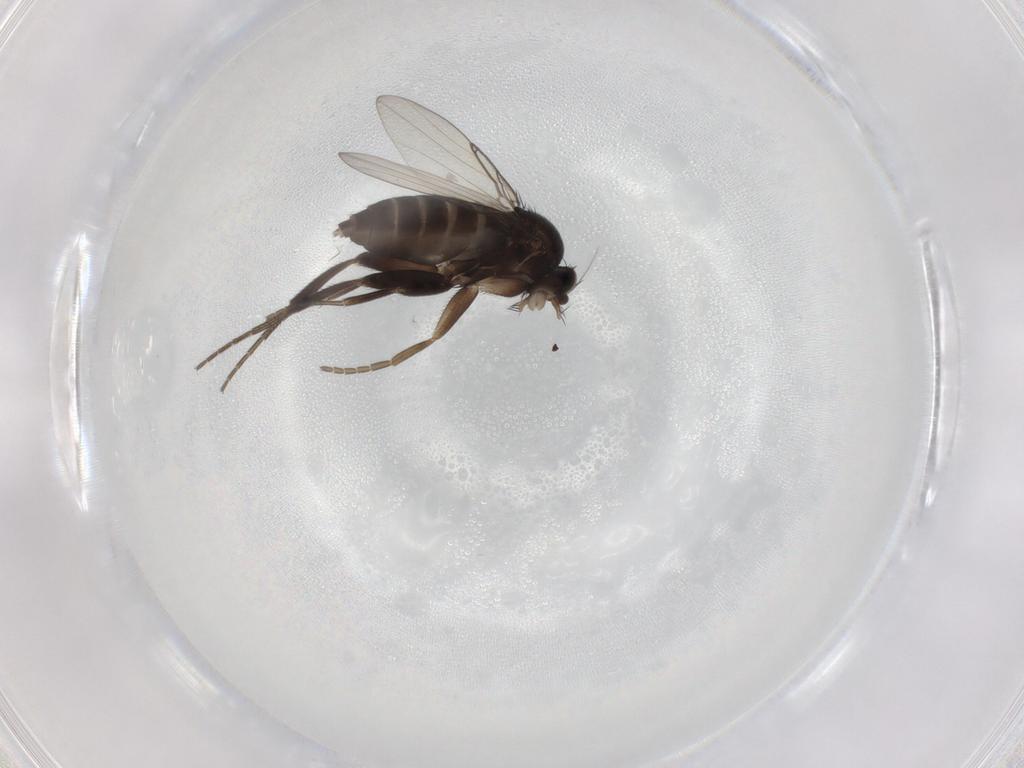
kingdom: Animalia
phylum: Arthropoda
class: Insecta
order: Diptera
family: Phoridae
